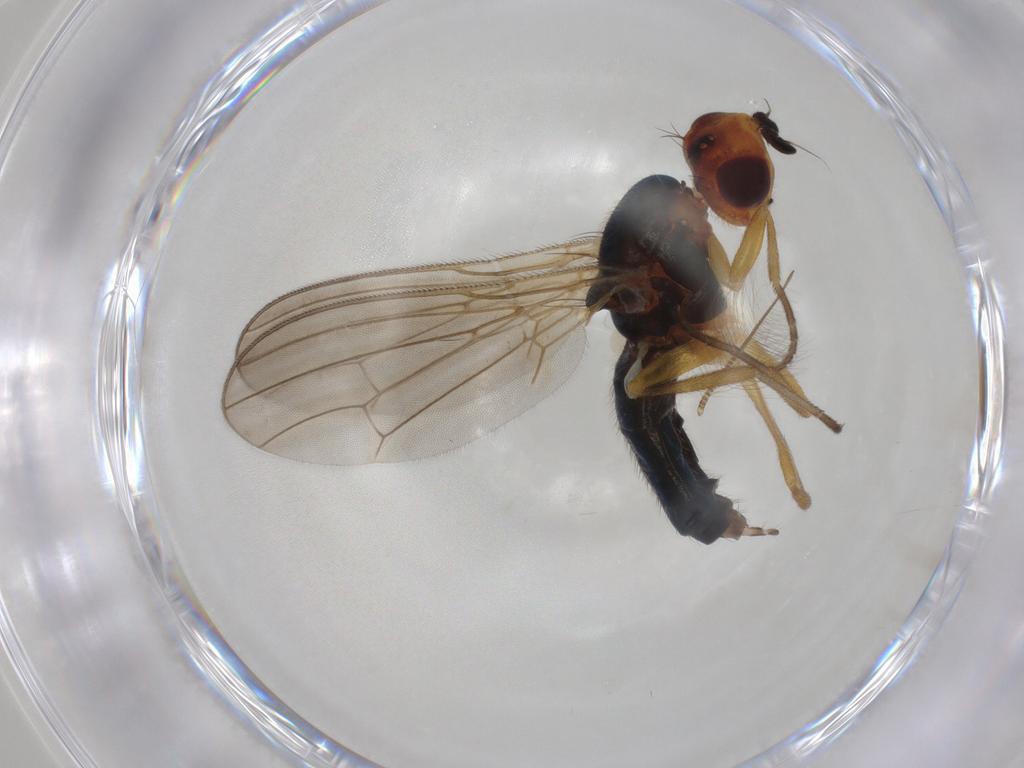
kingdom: Animalia
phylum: Arthropoda
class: Insecta
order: Diptera
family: Cecidomyiidae
